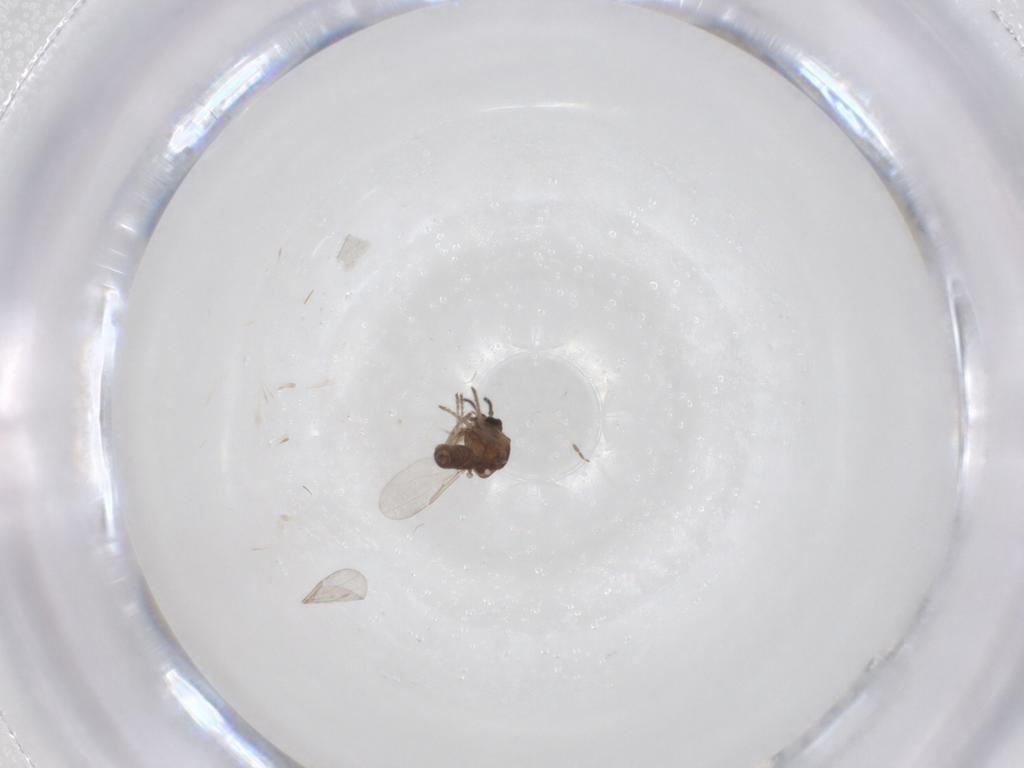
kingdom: Animalia
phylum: Arthropoda
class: Insecta
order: Diptera
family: Ceratopogonidae
